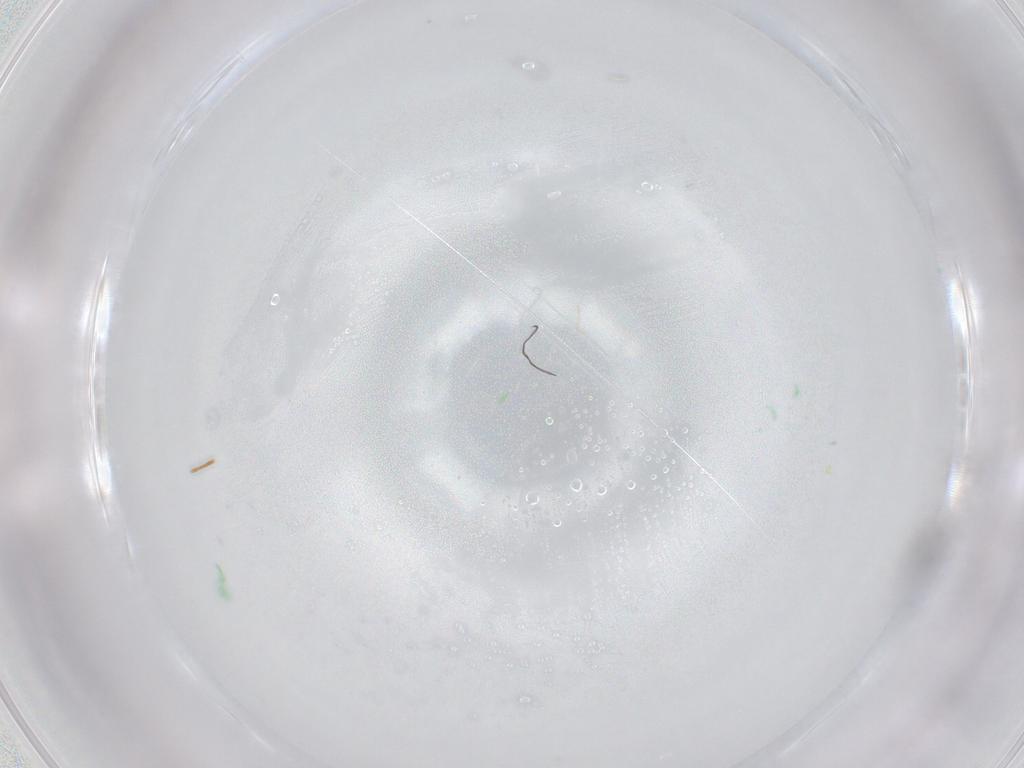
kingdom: Animalia
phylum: Arthropoda
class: Collembola
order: Entomobryomorpha
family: Entomobryidae
